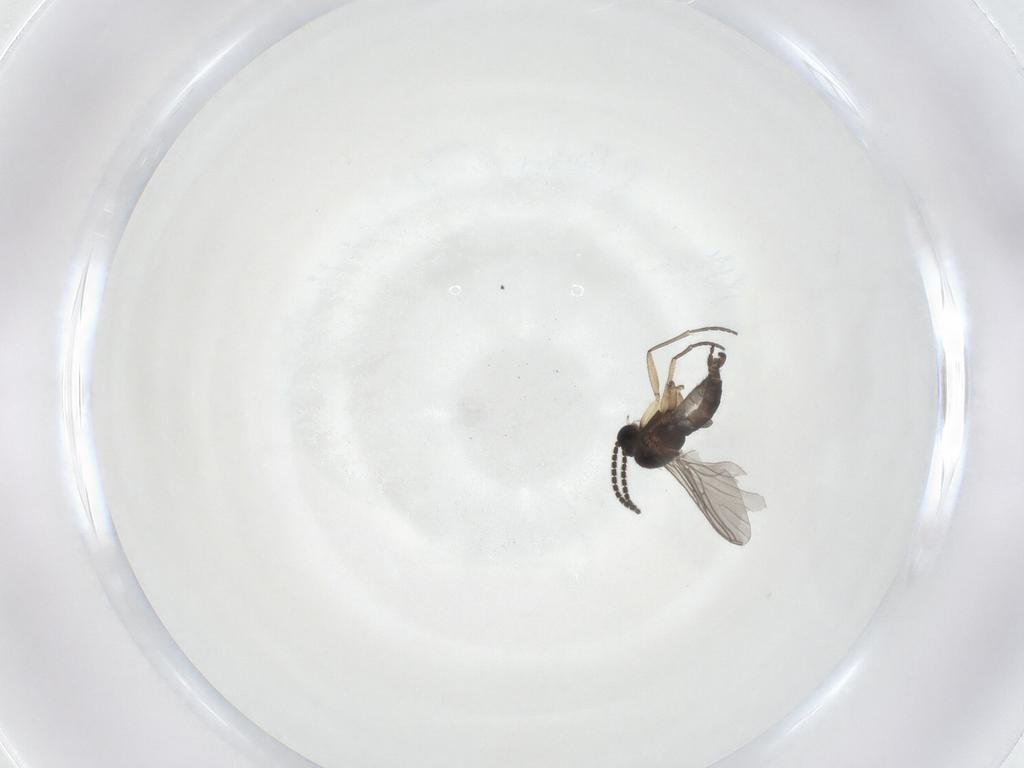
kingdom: Animalia
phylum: Arthropoda
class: Insecta
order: Diptera
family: Sciaridae
